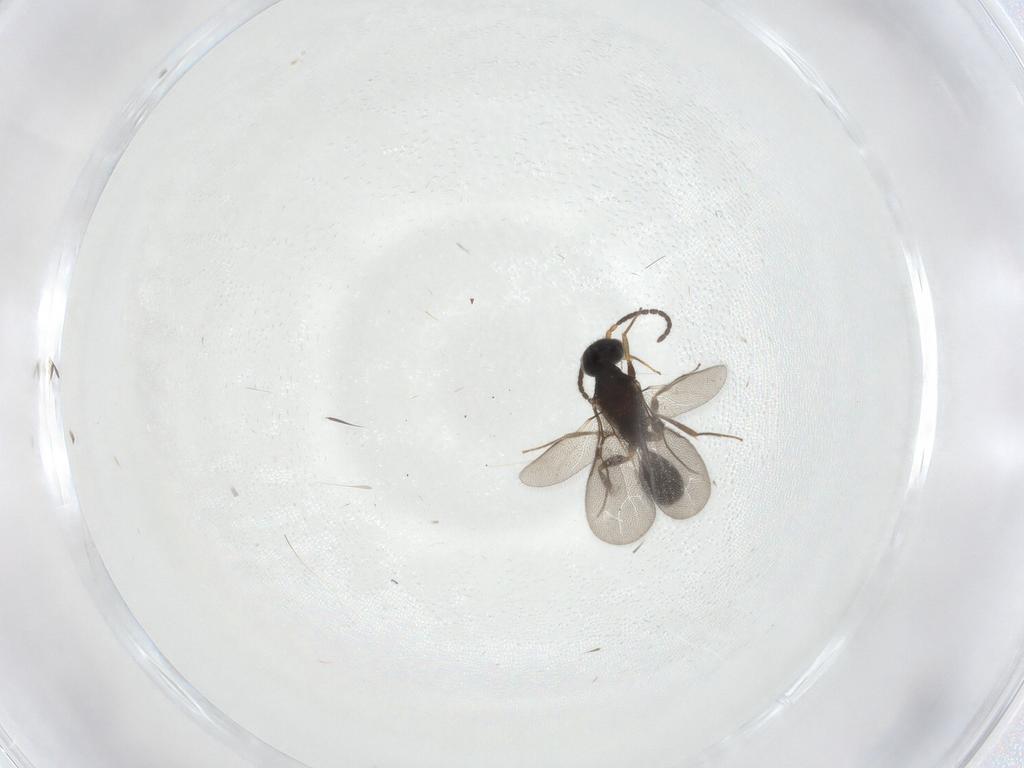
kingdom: Animalia
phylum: Arthropoda
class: Insecta
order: Hymenoptera
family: Bethylidae
